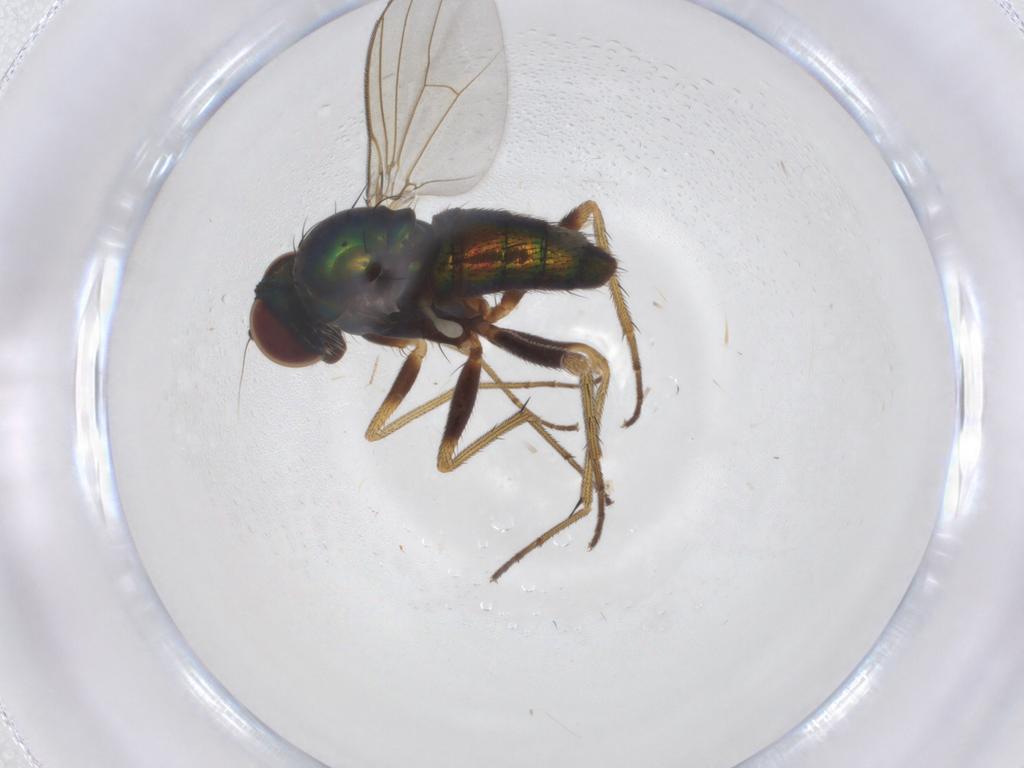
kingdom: Animalia
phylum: Arthropoda
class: Insecta
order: Diptera
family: Dolichopodidae
